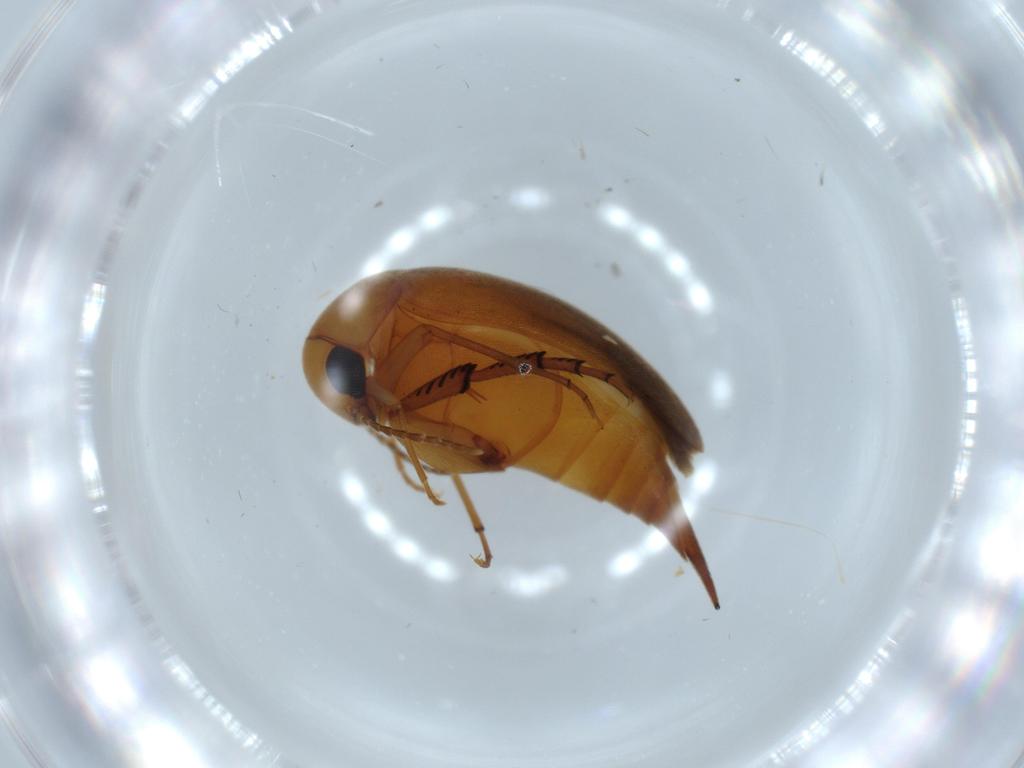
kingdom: Animalia
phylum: Arthropoda
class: Insecta
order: Coleoptera
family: Mordellidae
